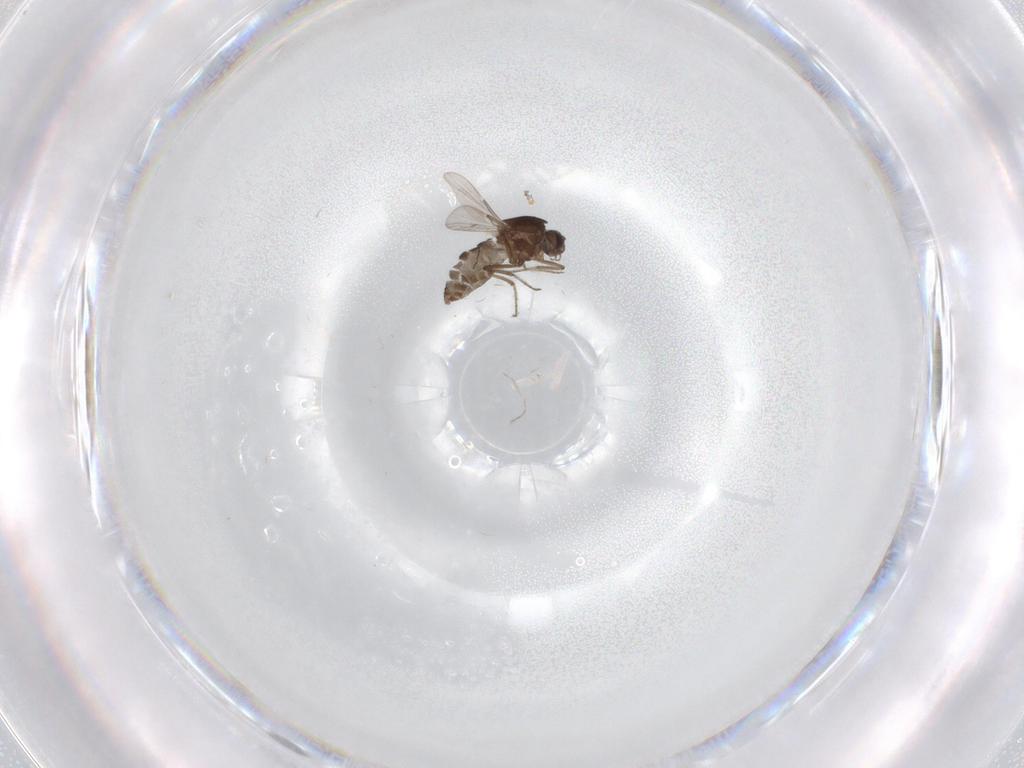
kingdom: Animalia
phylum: Arthropoda
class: Insecta
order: Diptera
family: Ceratopogonidae
